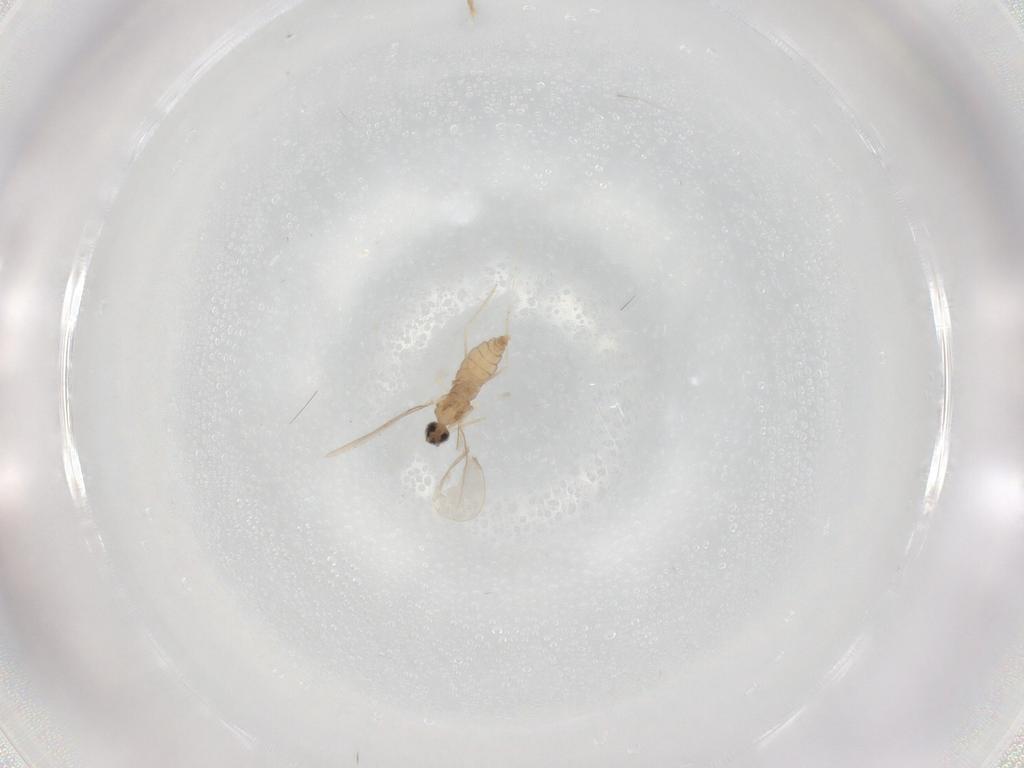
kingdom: Animalia
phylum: Arthropoda
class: Insecta
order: Diptera
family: Cecidomyiidae
